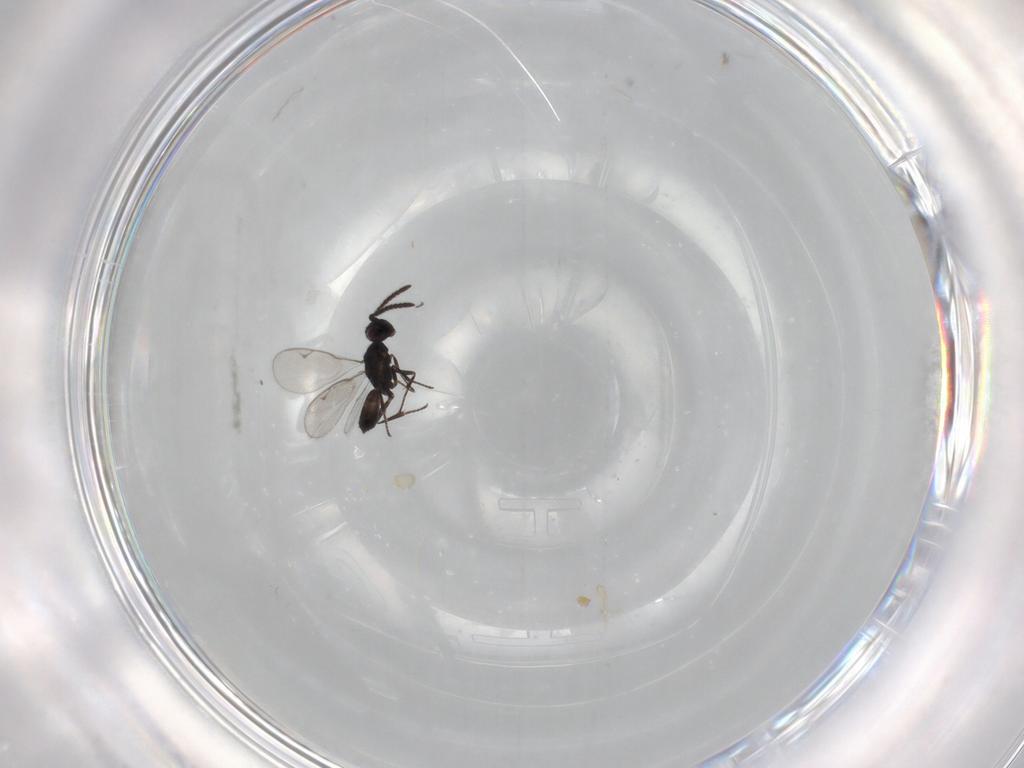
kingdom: Animalia
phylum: Arthropoda
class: Insecta
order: Hymenoptera
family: Eupelmidae
